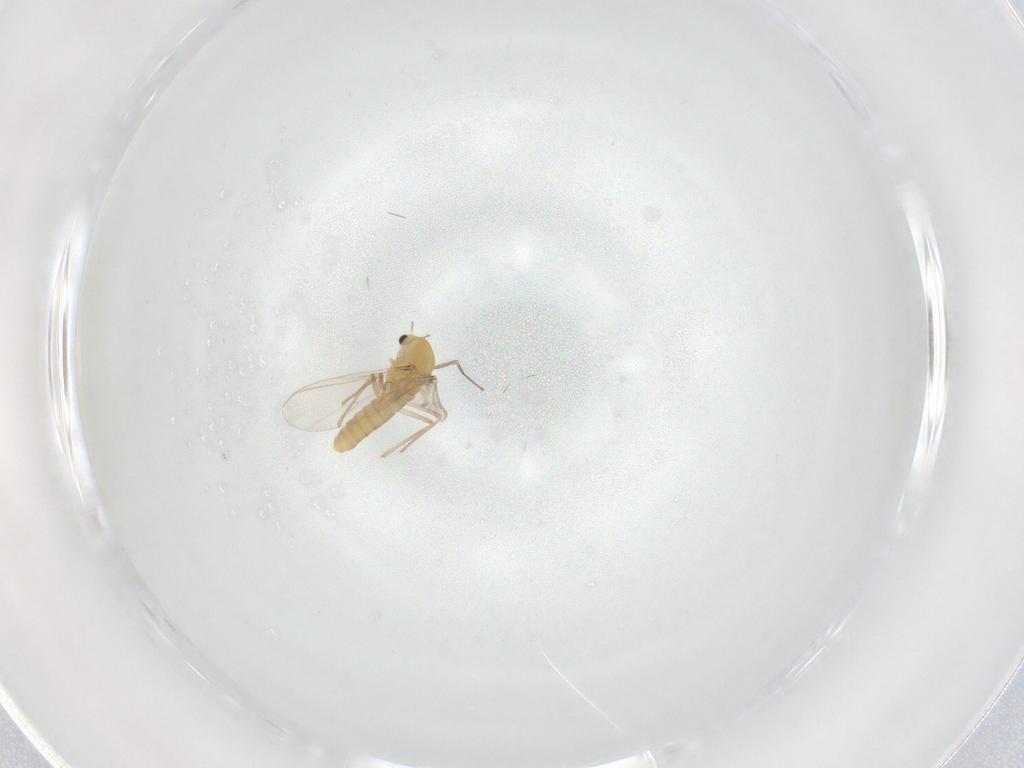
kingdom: Animalia
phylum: Arthropoda
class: Insecta
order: Diptera
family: Chironomidae
